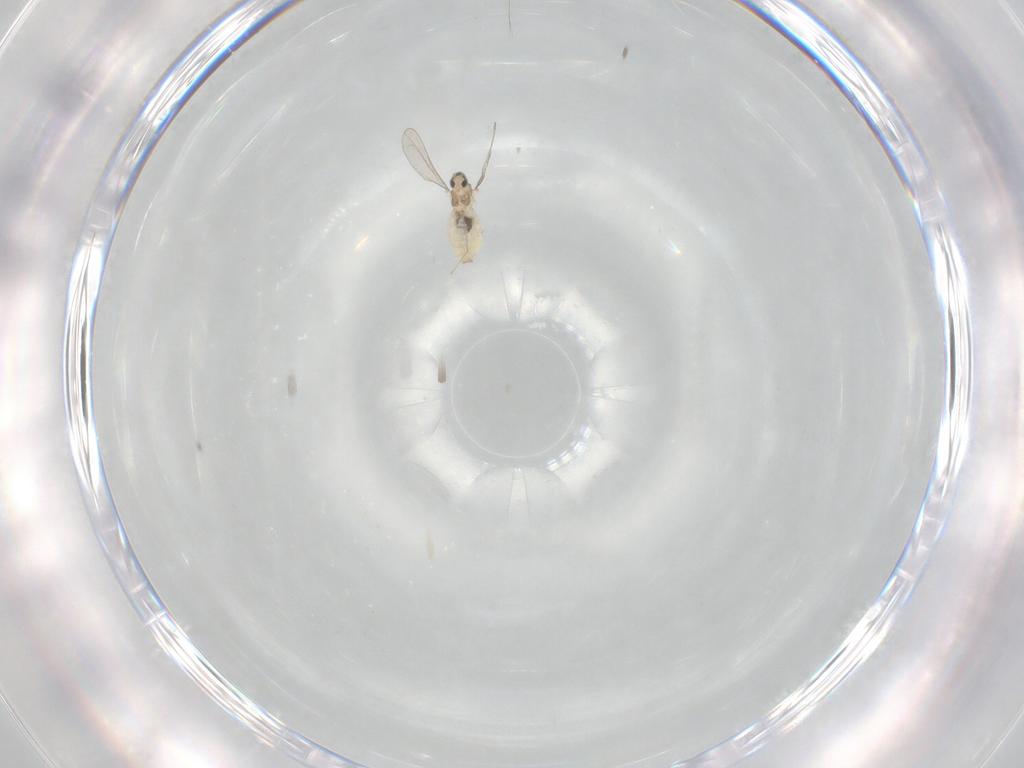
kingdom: Animalia
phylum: Arthropoda
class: Insecta
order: Diptera
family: Cecidomyiidae
